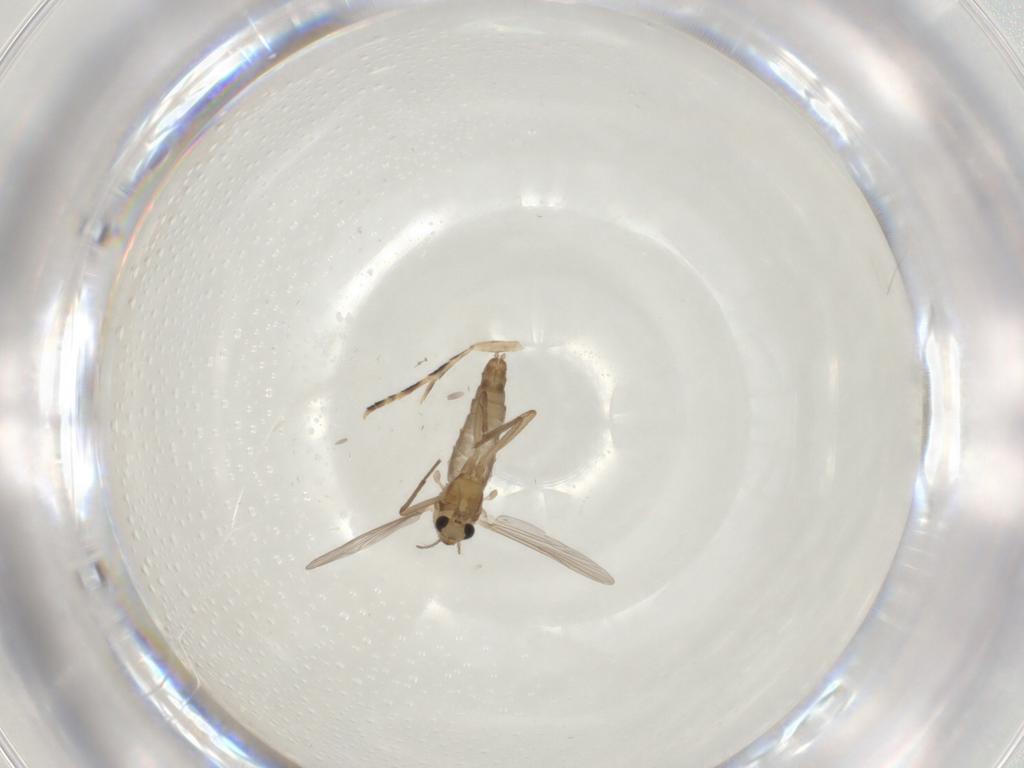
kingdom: Animalia
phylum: Arthropoda
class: Insecta
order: Diptera
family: Chironomidae
